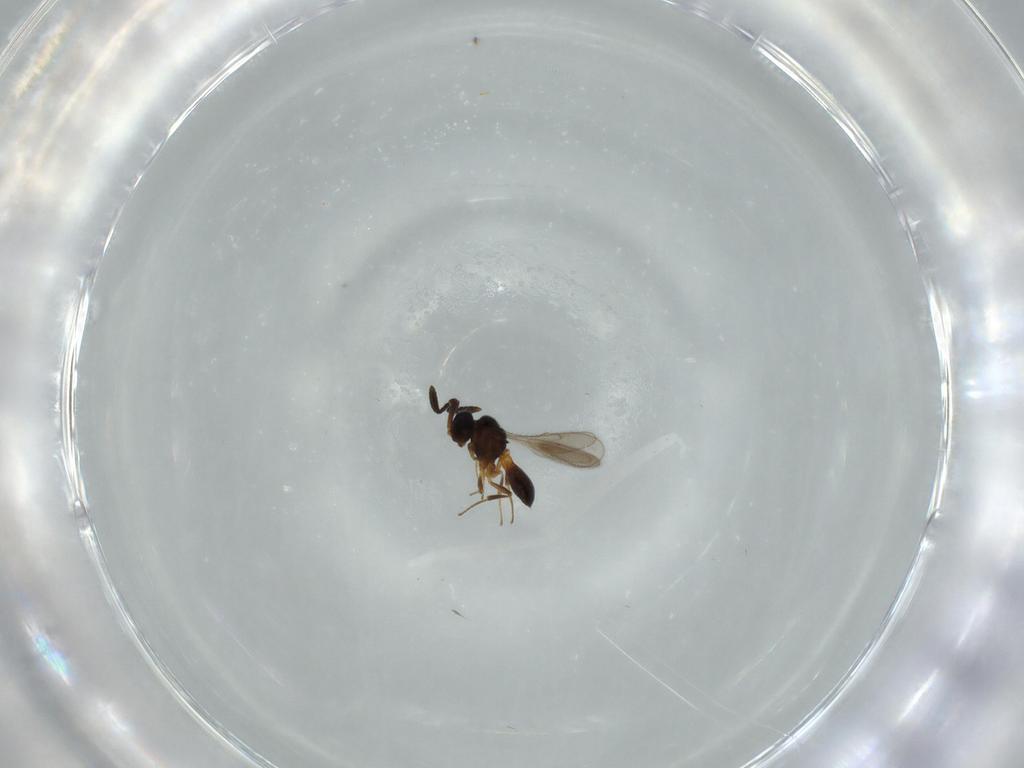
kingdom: Animalia
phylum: Arthropoda
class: Insecta
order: Hymenoptera
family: Scelionidae
